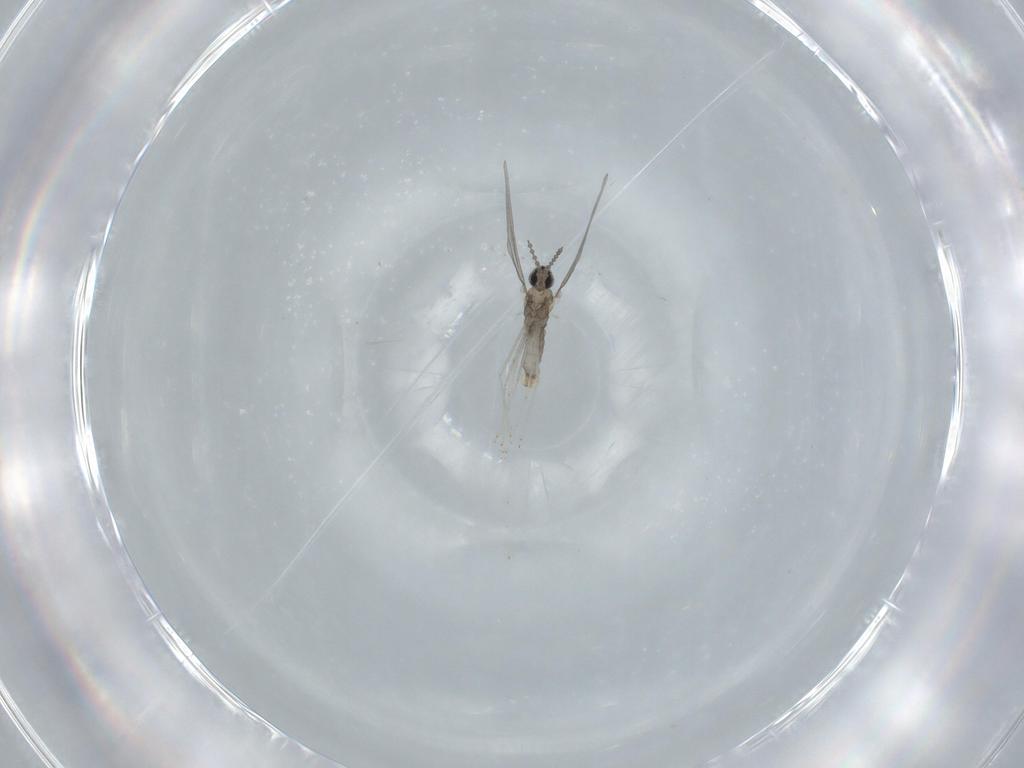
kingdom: Animalia
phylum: Arthropoda
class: Insecta
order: Diptera
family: Cecidomyiidae
